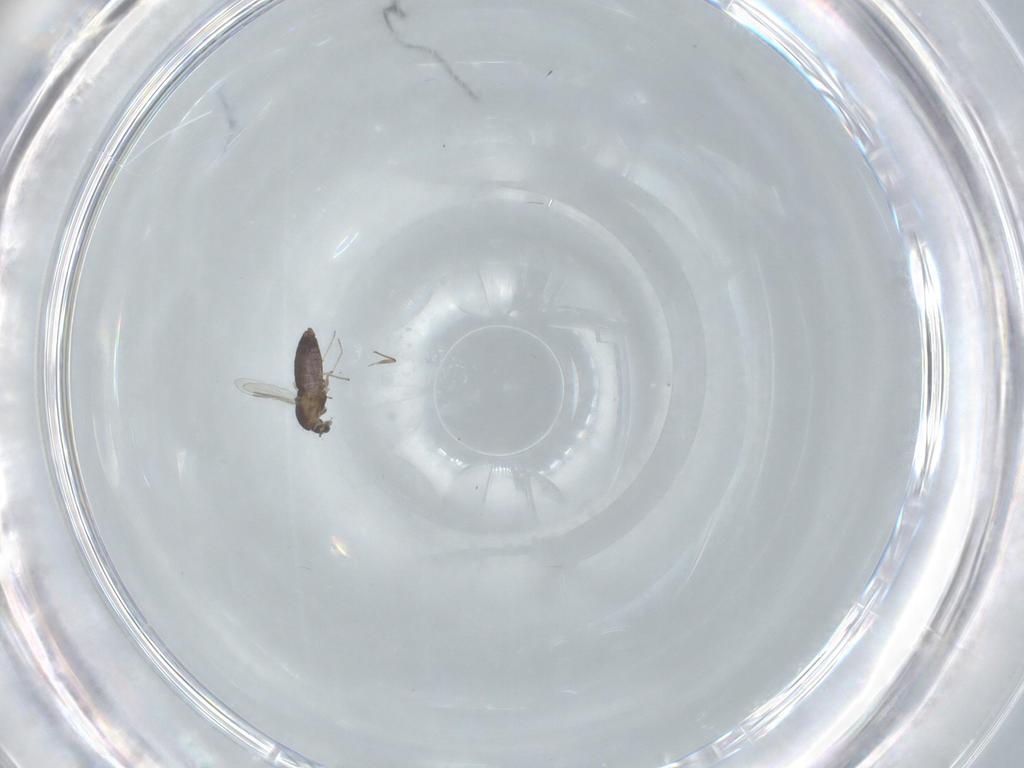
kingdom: Animalia
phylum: Arthropoda
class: Insecta
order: Diptera
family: Chironomidae
